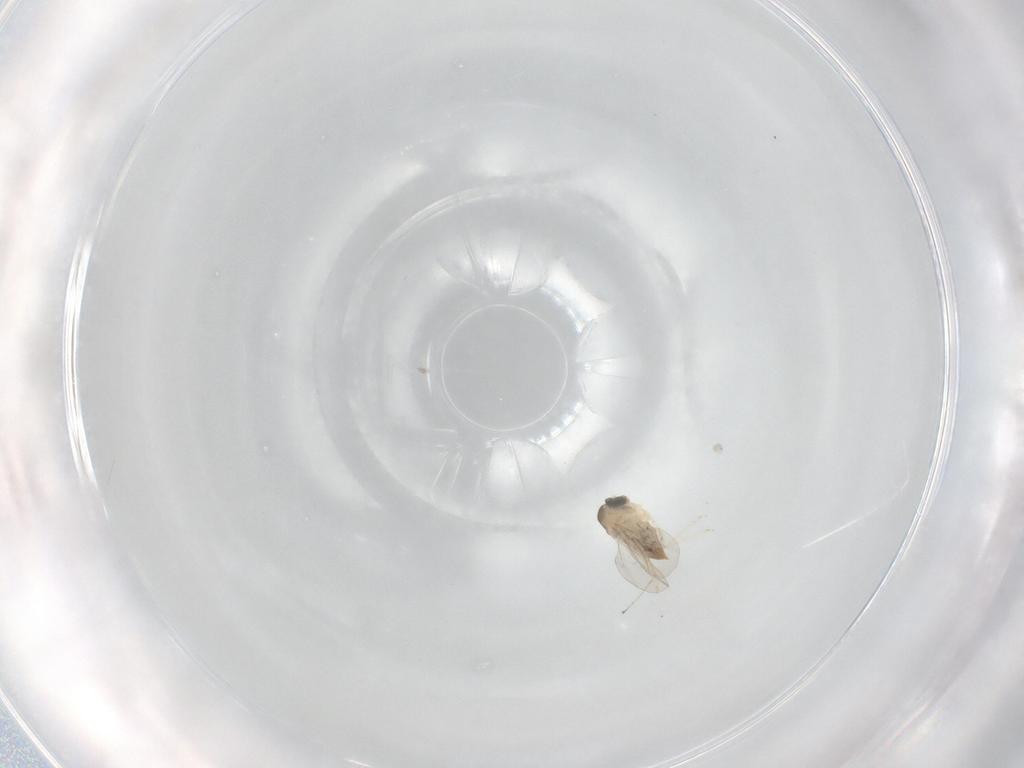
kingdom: Animalia
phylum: Arthropoda
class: Insecta
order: Diptera
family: Cecidomyiidae
